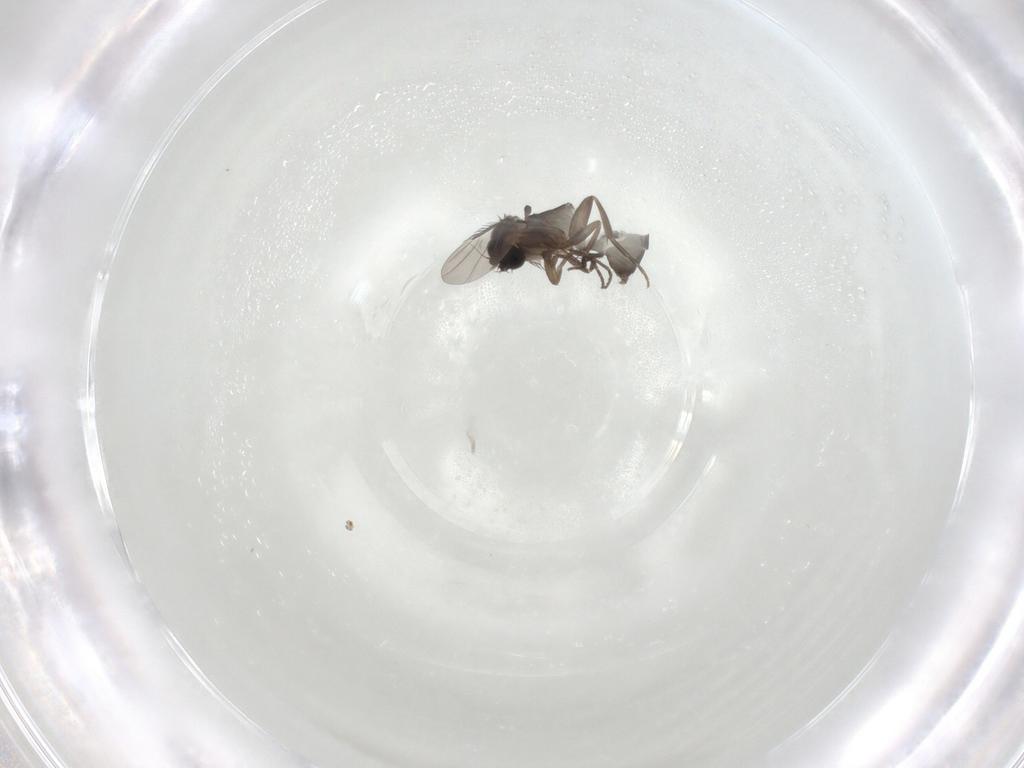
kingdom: Animalia
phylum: Arthropoda
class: Insecta
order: Diptera
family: Phoridae
